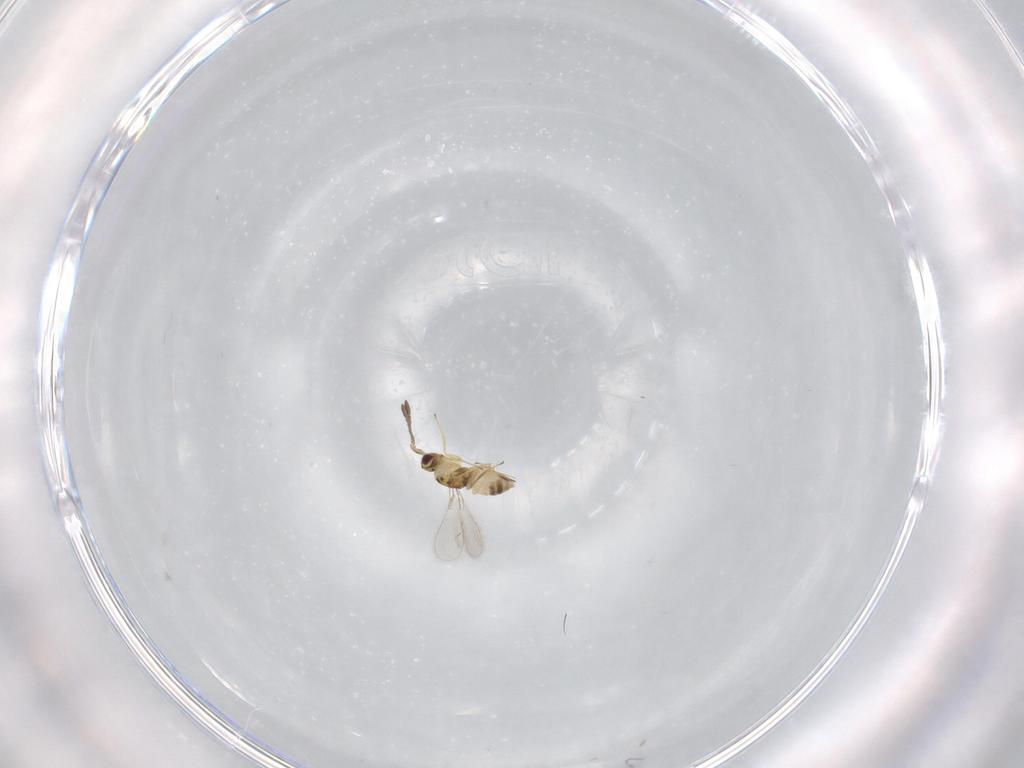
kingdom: Animalia
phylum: Arthropoda
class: Insecta
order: Hymenoptera
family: Mymaridae
